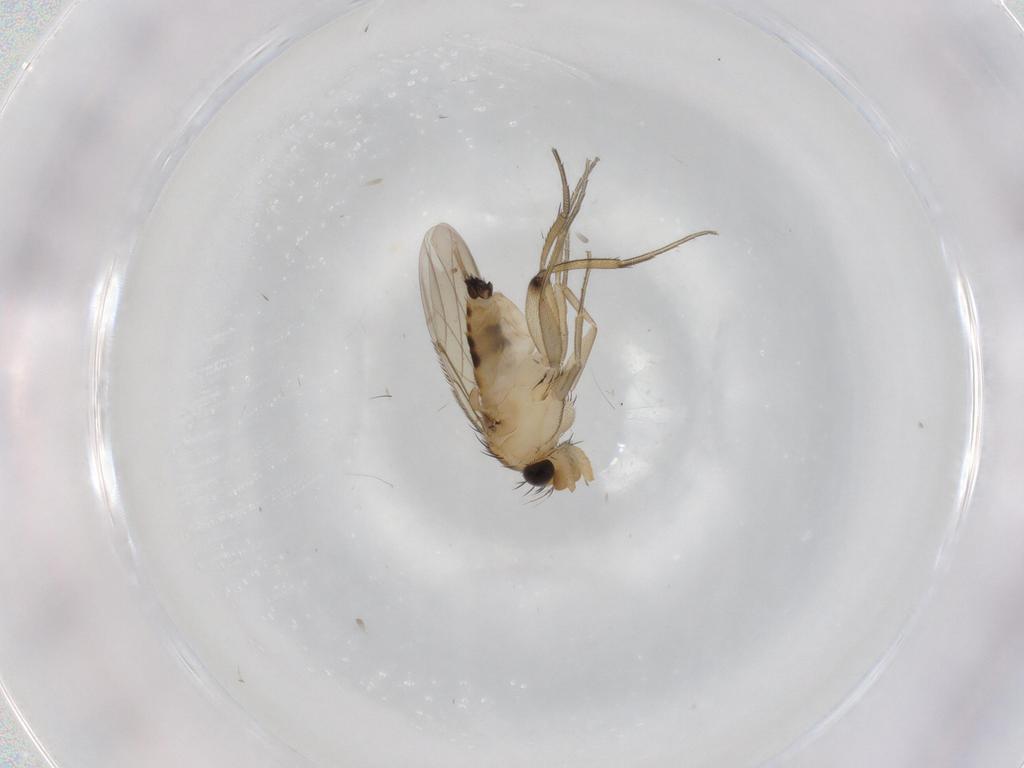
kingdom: Animalia
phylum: Arthropoda
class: Insecta
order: Diptera
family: Phoridae
